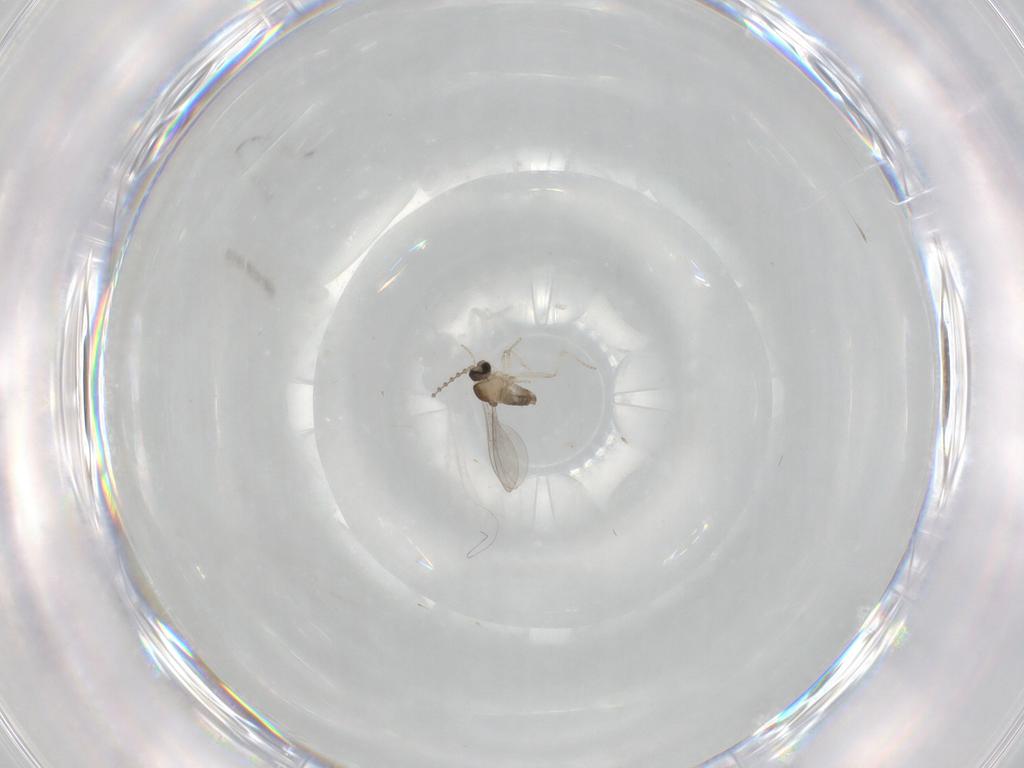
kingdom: Animalia
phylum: Arthropoda
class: Insecta
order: Diptera
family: Cecidomyiidae
